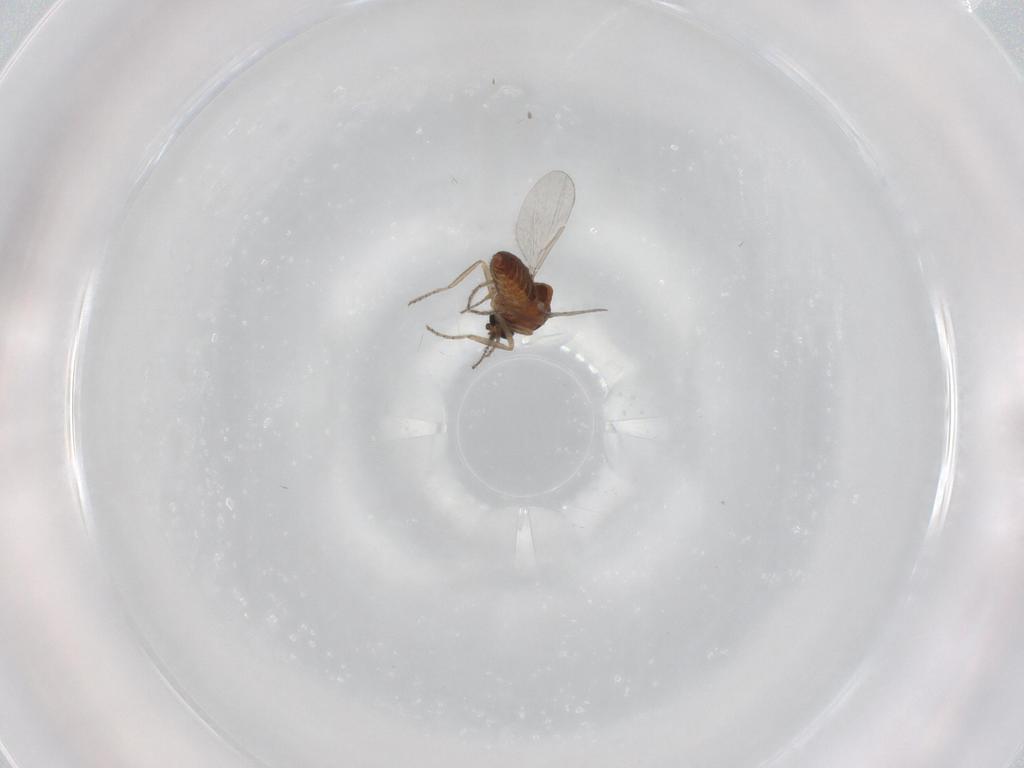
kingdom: Animalia
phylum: Arthropoda
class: Insecta
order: Diptera
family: Ceratopogonidae
